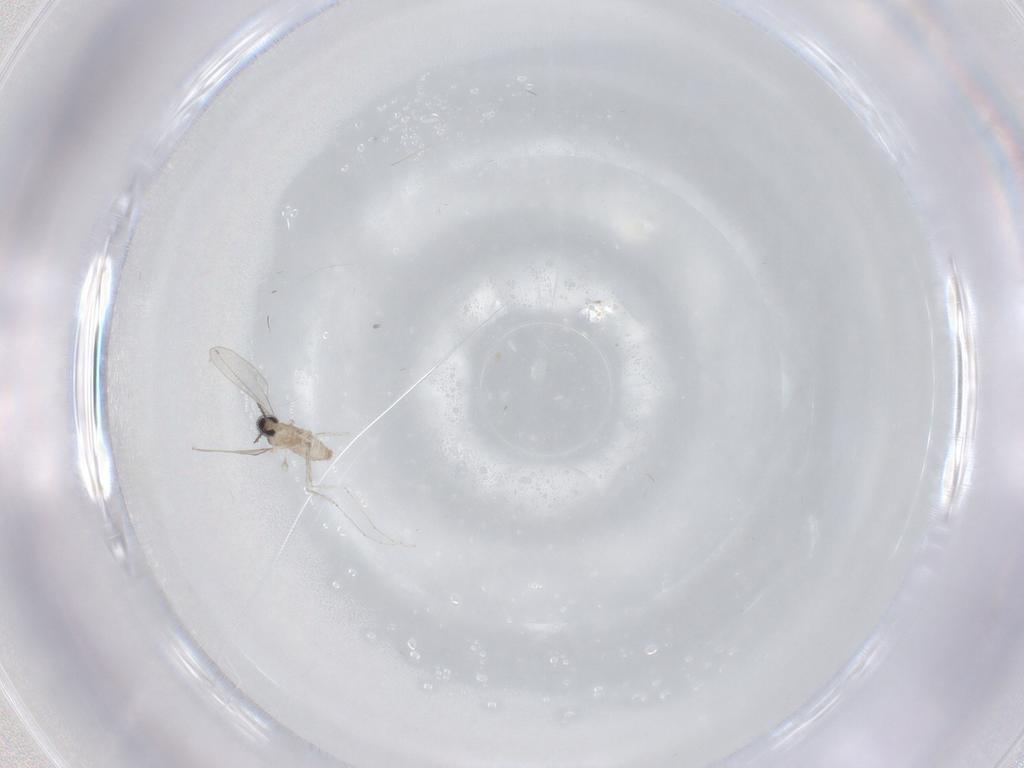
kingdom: Animalia
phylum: Arthropoda
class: Insecta
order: Diptera
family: Cecidomyiidae
